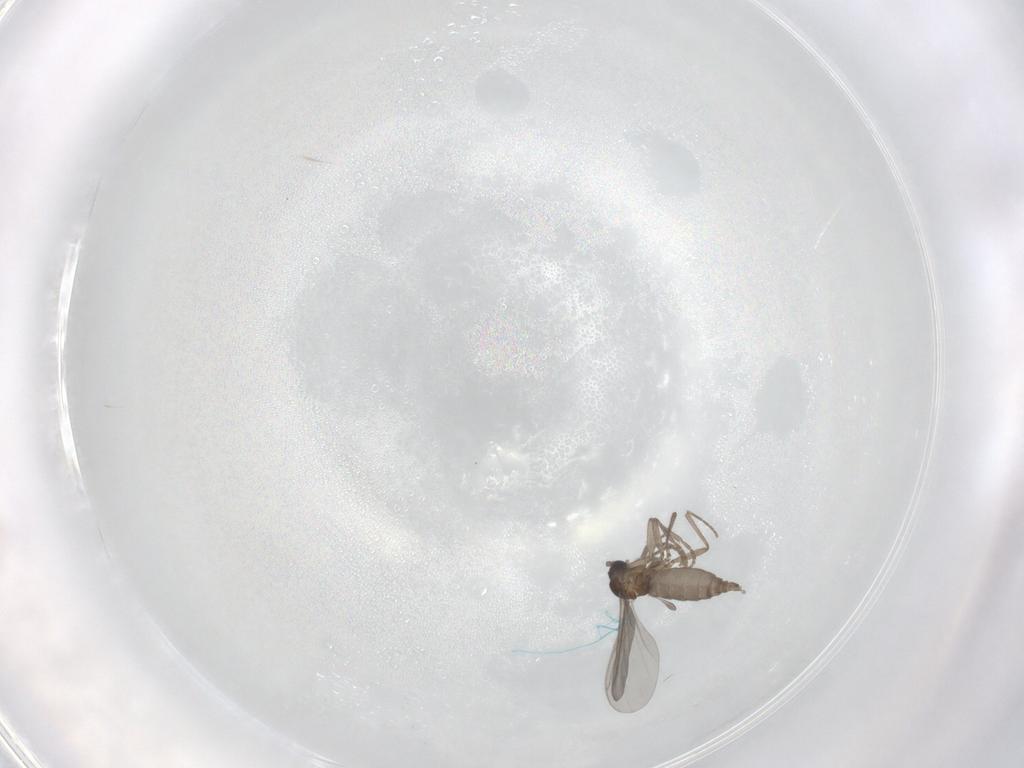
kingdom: Animalia
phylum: Arthropoda
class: Insecta
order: Diptera
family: Sciaridae
